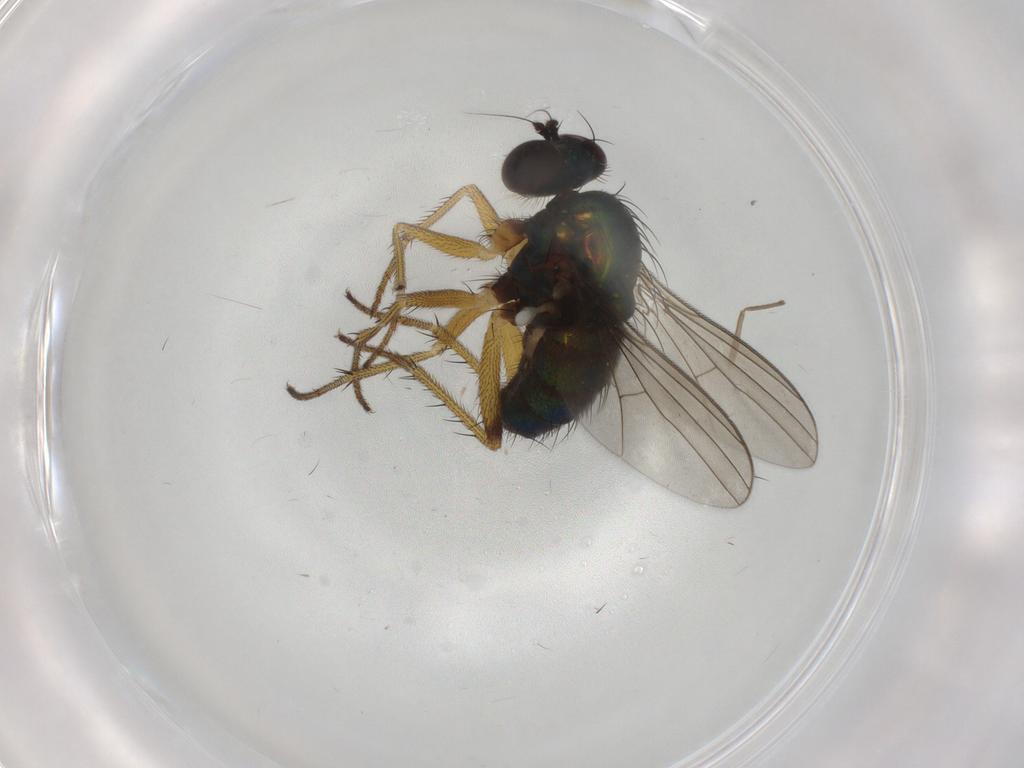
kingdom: Animalia
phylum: Arthropoda
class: Insecta
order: Diptera
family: Dolichopodidae
